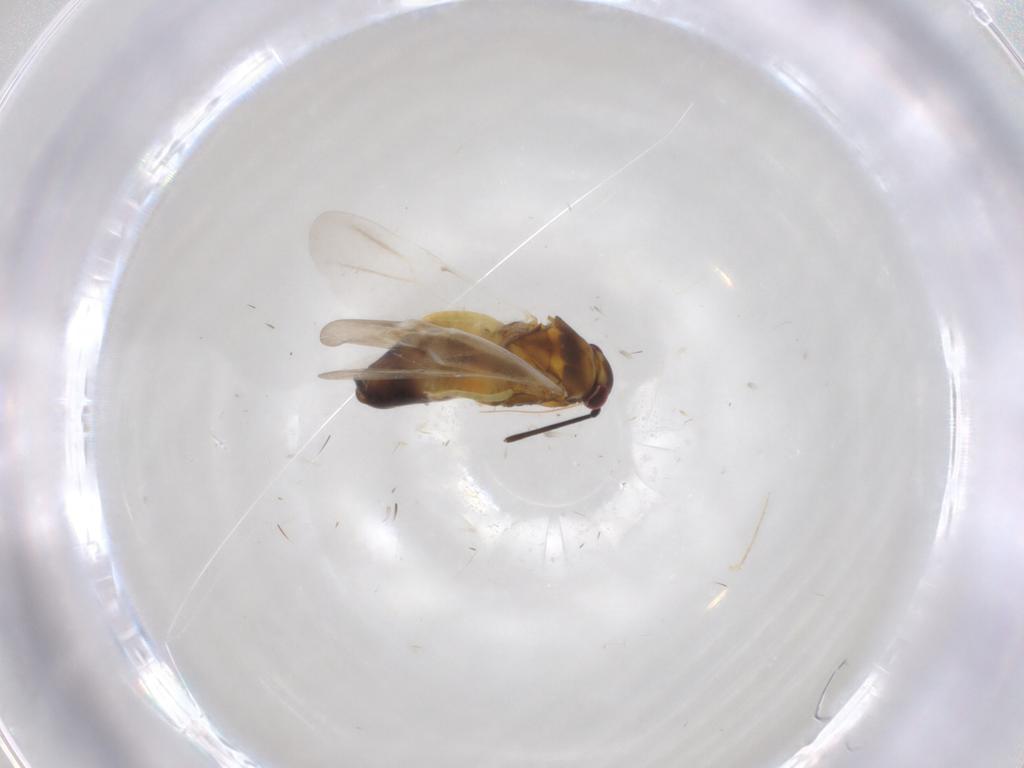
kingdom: Animalia
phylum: Arthropoda
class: Insecta
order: Hemiptera
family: Miridae
